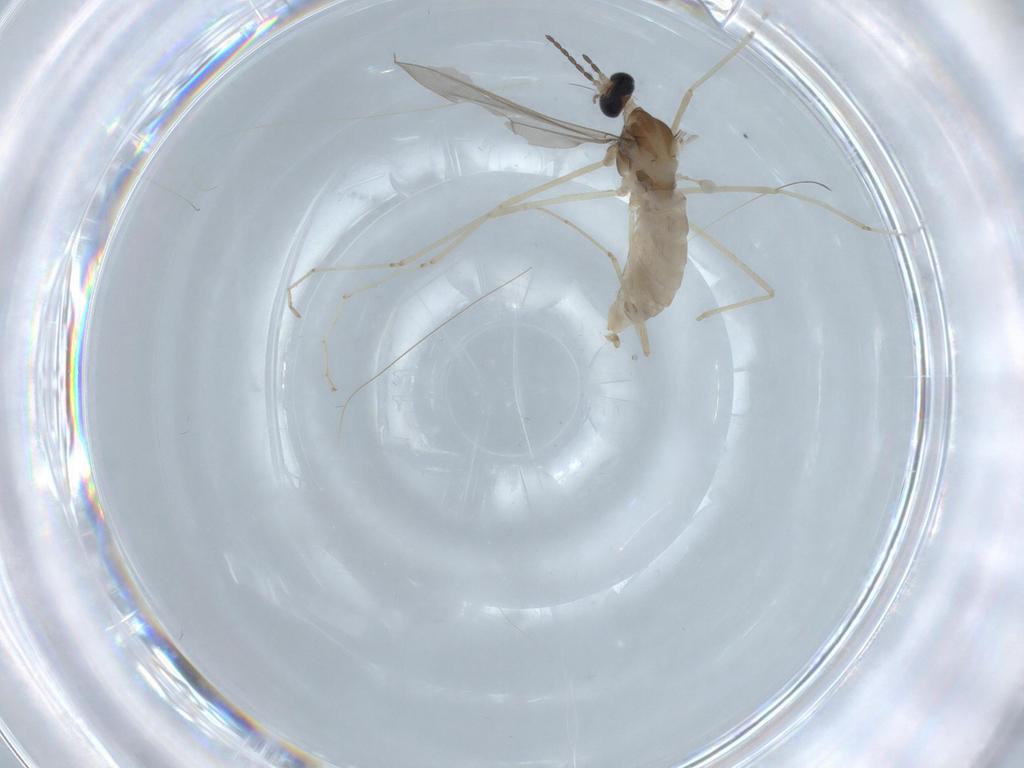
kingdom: Animalia
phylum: Arthropoda
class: Insecta
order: Diptera
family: Cecidomyiidae
